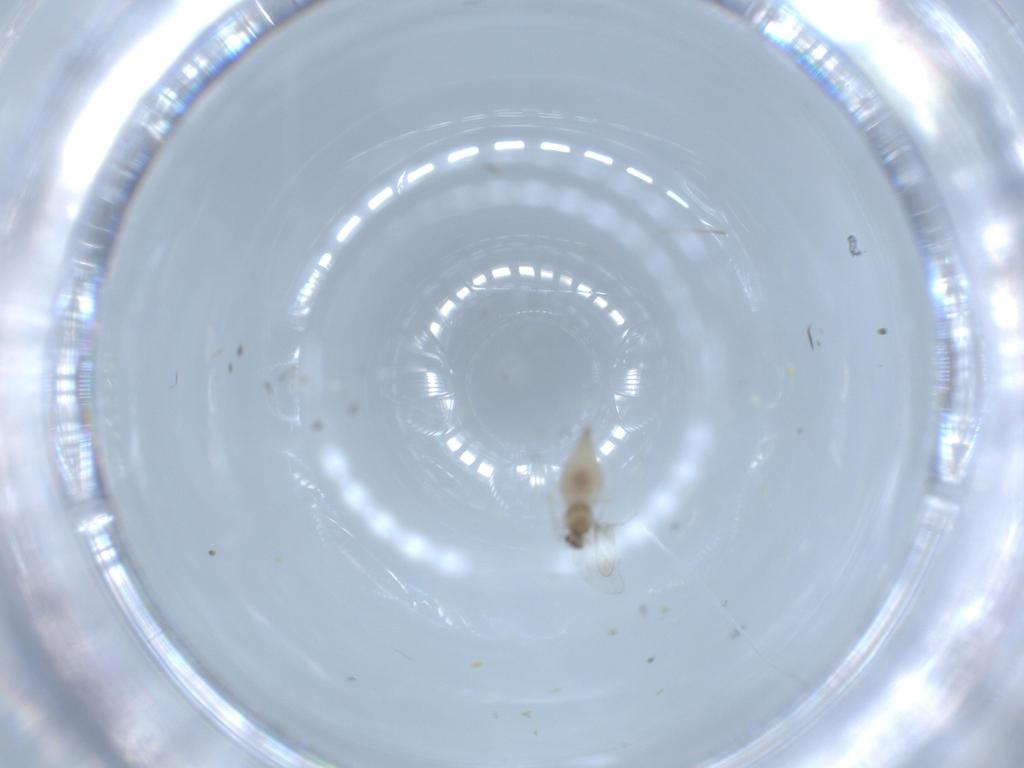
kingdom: Animalia
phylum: Arthropoda
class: Insecta
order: Diptera
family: Cecidomyiidae
